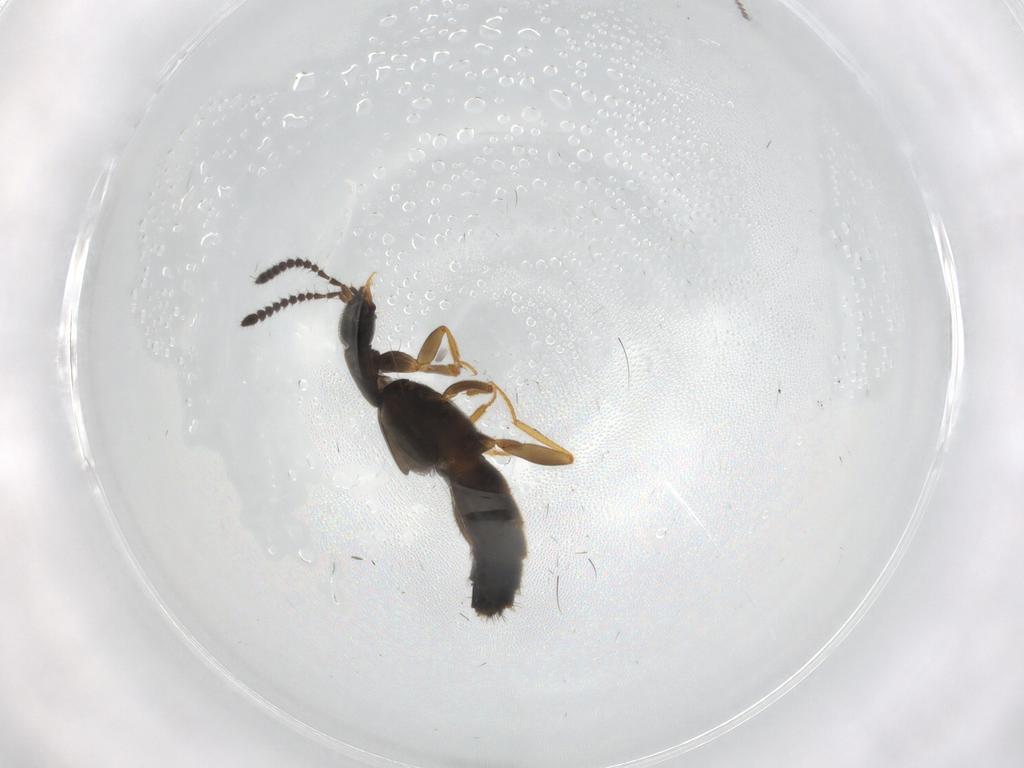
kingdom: Animalia
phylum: Arthropoda
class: Insecta
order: Coleoptera
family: Staphylinidae
